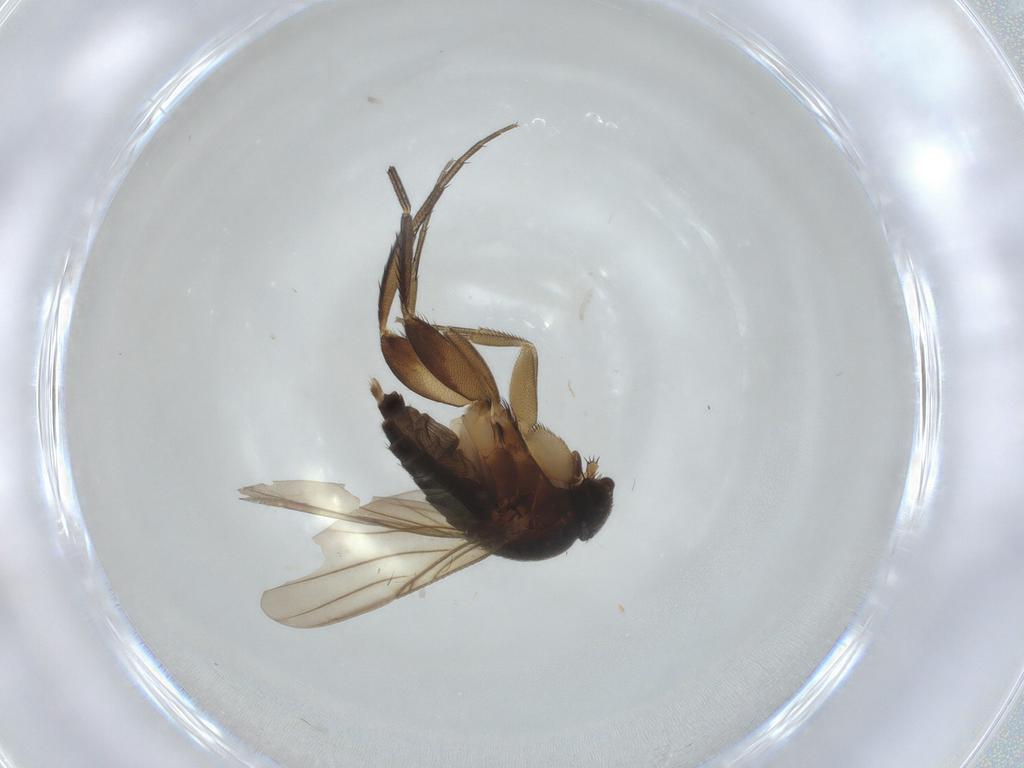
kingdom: Animalia
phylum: Arthropoda
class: Insecta
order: Diptera
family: Phoridae
